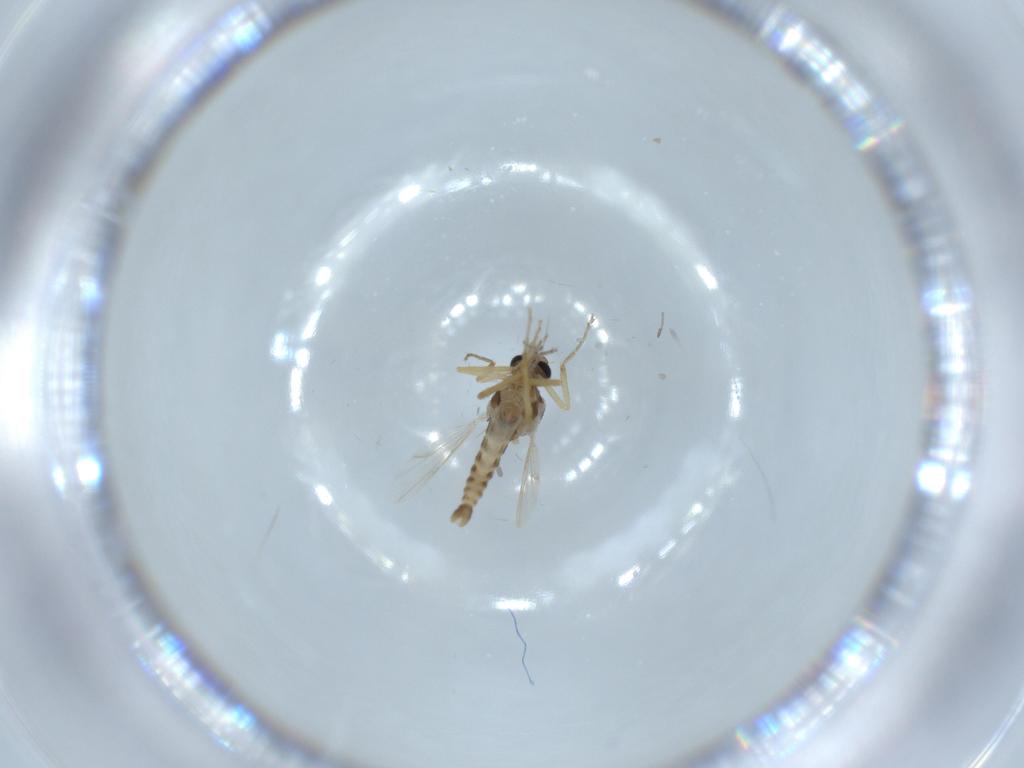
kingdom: Animalia
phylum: Arthropoda
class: Insecta
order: Diptera
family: Ceratopogonidae
